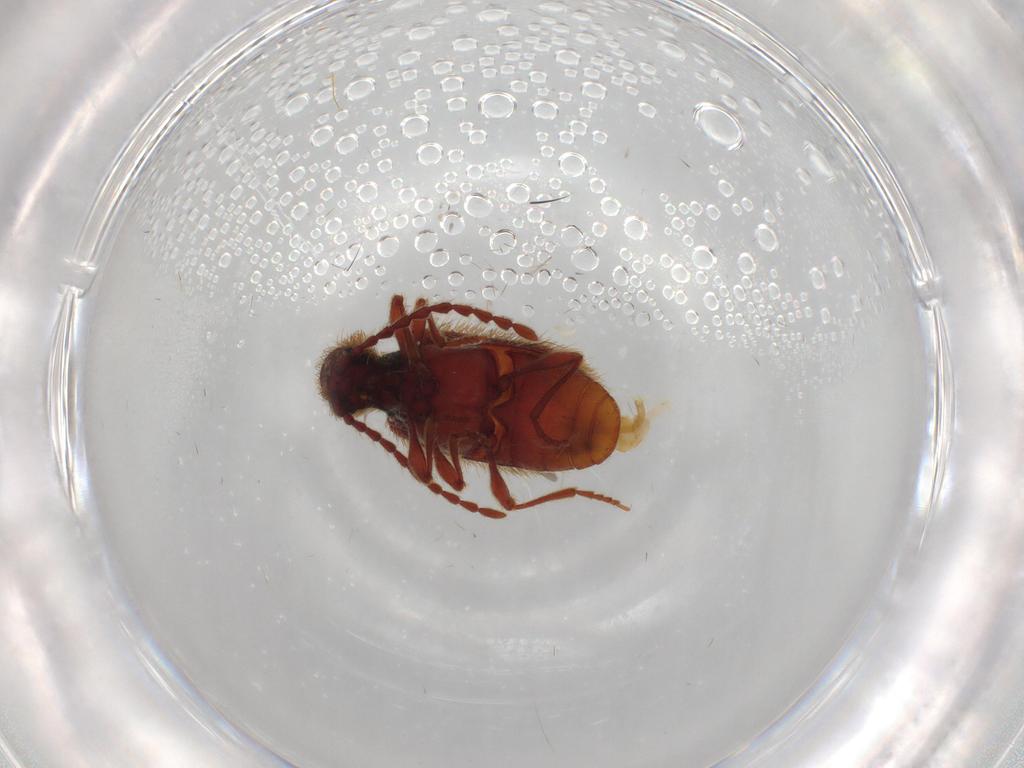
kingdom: Animalia
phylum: Arthropoda
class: Insecta
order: Coleoptera
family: Ptinidae
